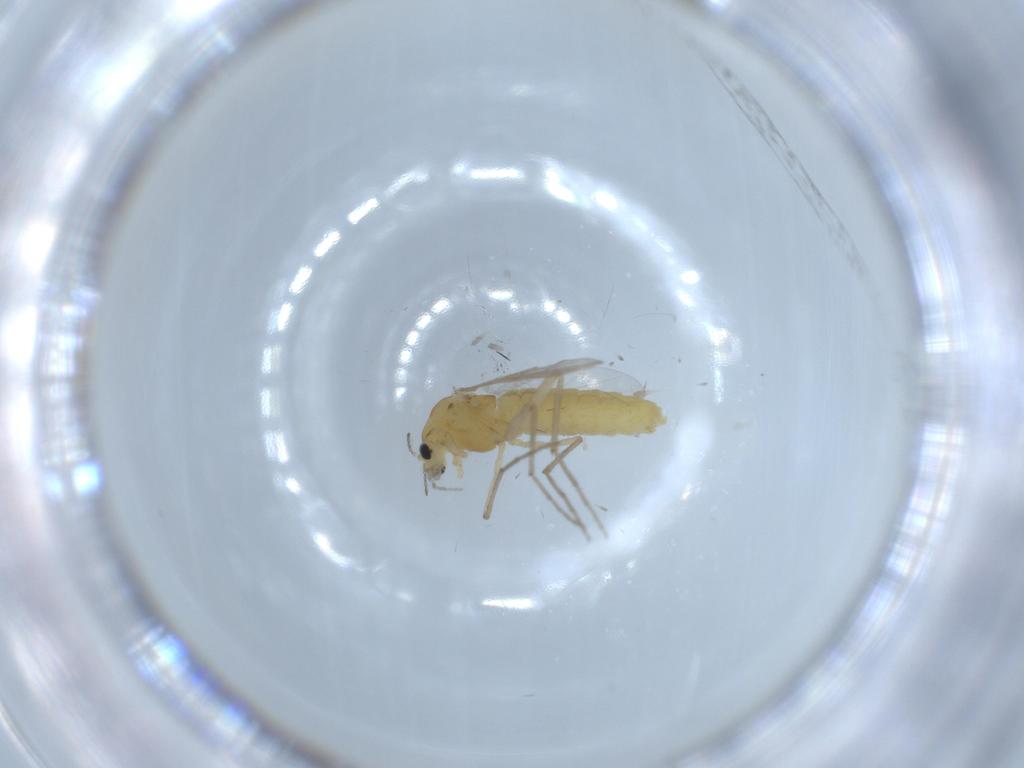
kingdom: Animalia
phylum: Arthropoda
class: Insecta
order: Diptera
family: Chironomidae
